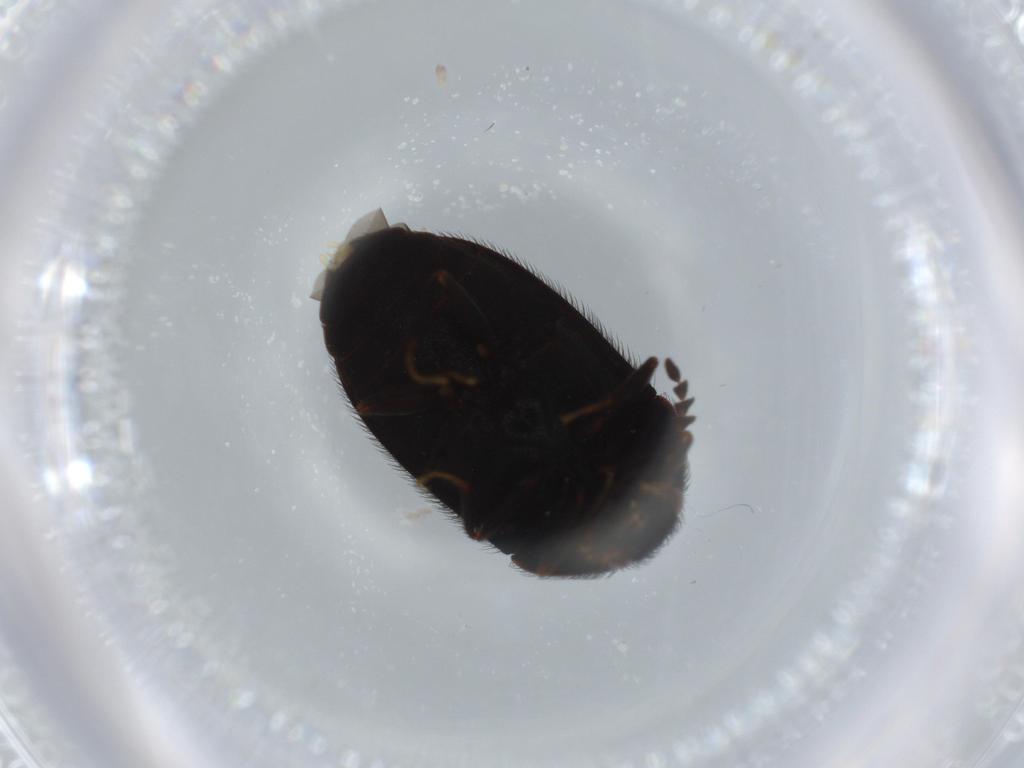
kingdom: Animalia
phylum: Arthropoda
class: Insecta
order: Coleoptera
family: Dermestidae
